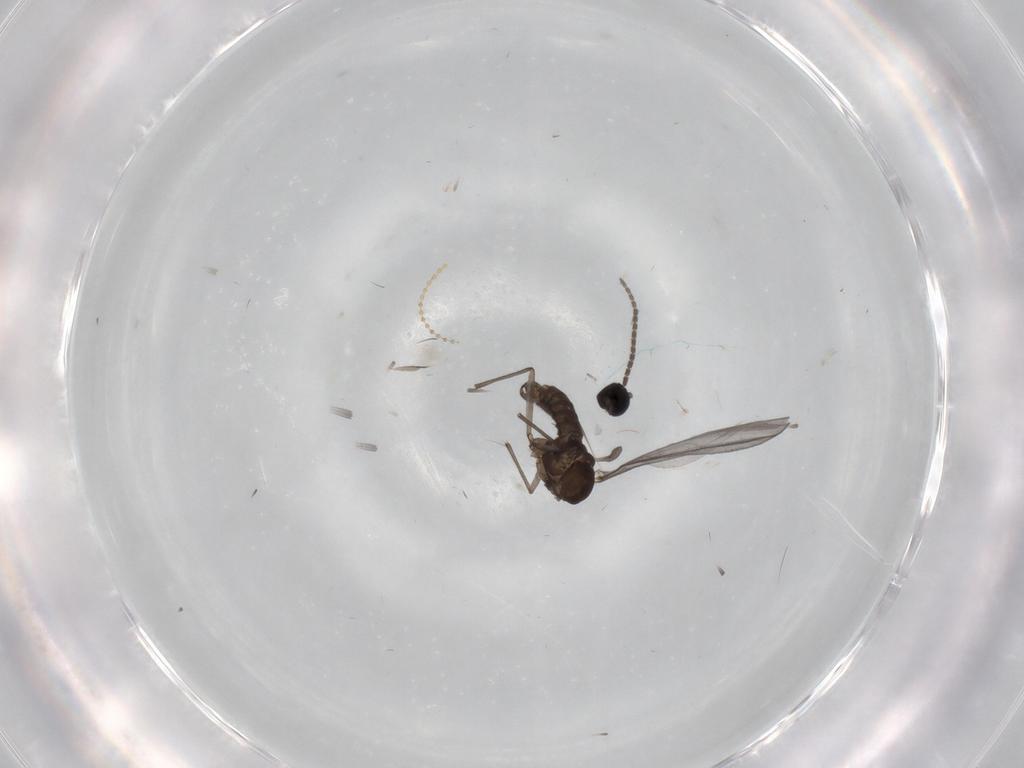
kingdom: Animalia
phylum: Arthropoda
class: Insecta
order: Diptera
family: Sciaridae
